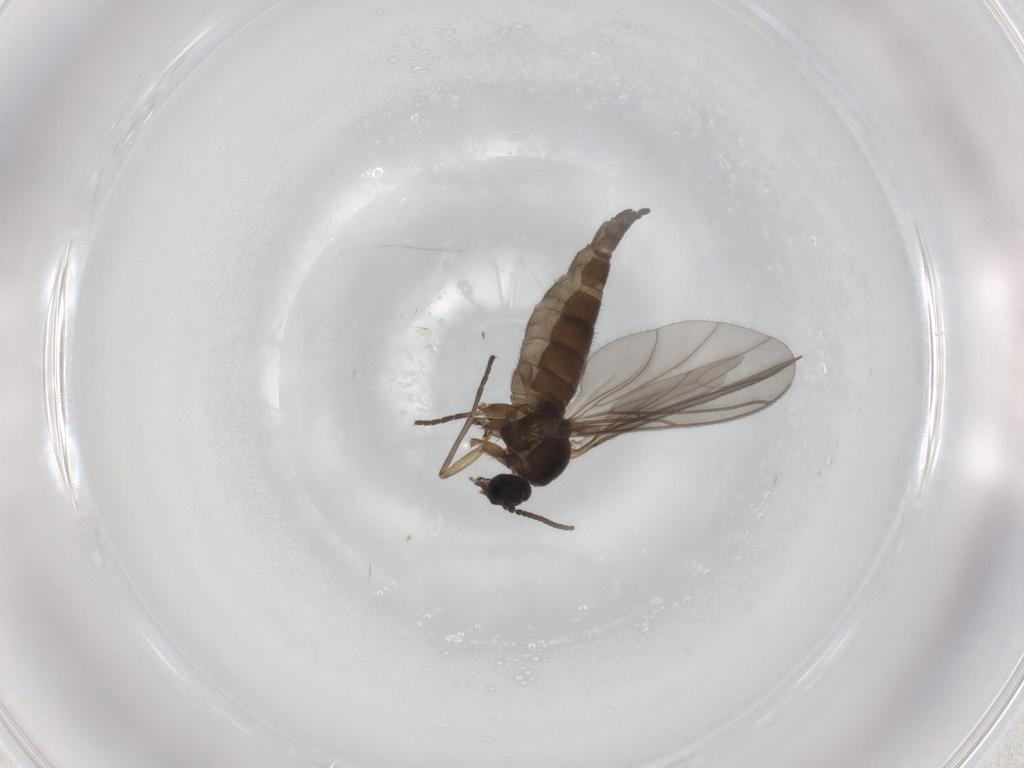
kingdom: Animalia
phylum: Arthropoda
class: Insecta
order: Diptera
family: Sciaridae
